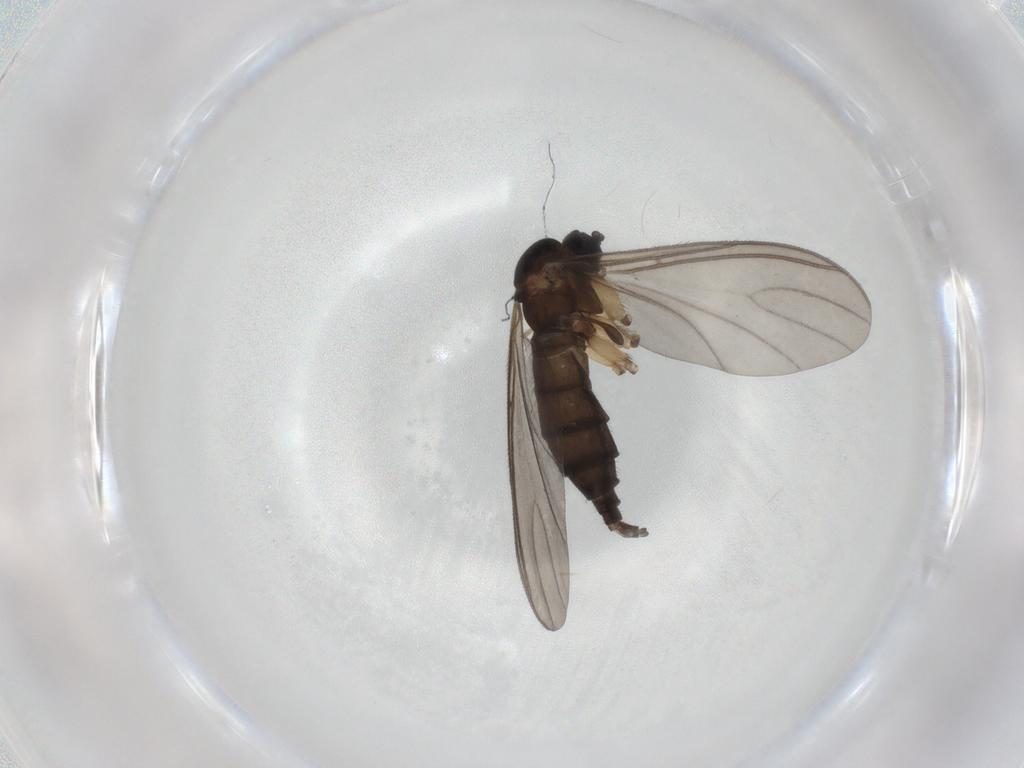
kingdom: Animalia
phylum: Arthropoda
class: Insecta
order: Diptera
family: Sciaridae
